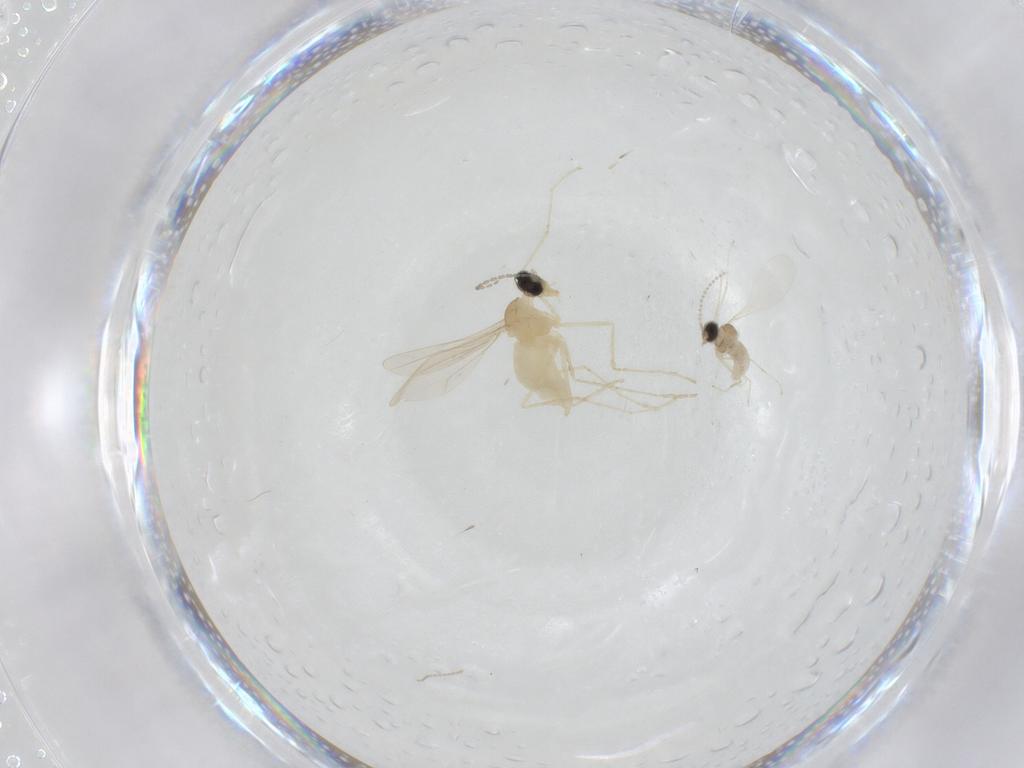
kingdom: Animalia
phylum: Arthropoda
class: Insecta
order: Diptera
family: Cecidomyiidae
